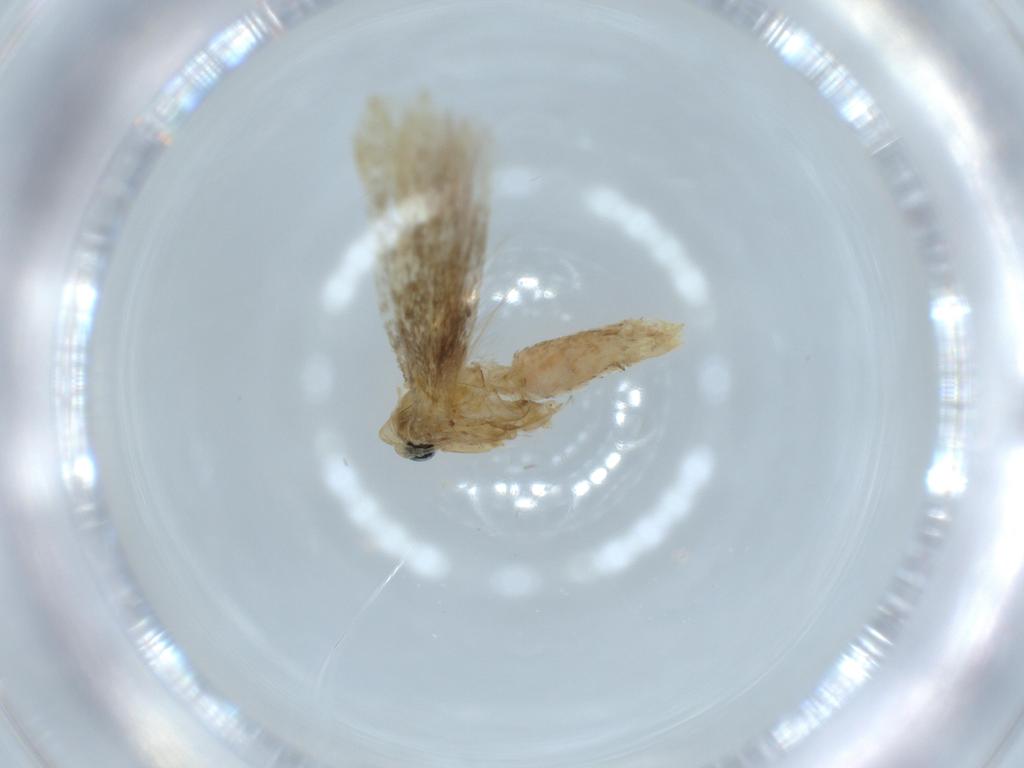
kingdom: Animalia
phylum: Arthropoda
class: Insecta
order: Lepidoptera
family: Bedelliidae
